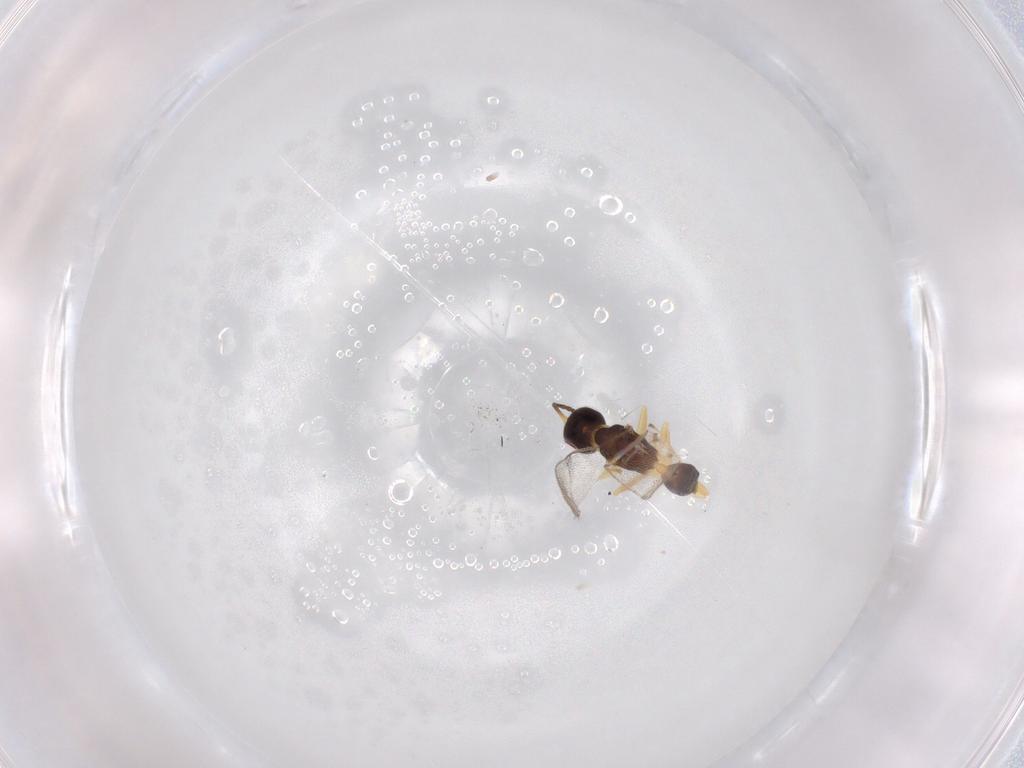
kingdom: Animalia
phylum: Arthropoda
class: Insecta
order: Hymenoptera
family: Pteromalidae
